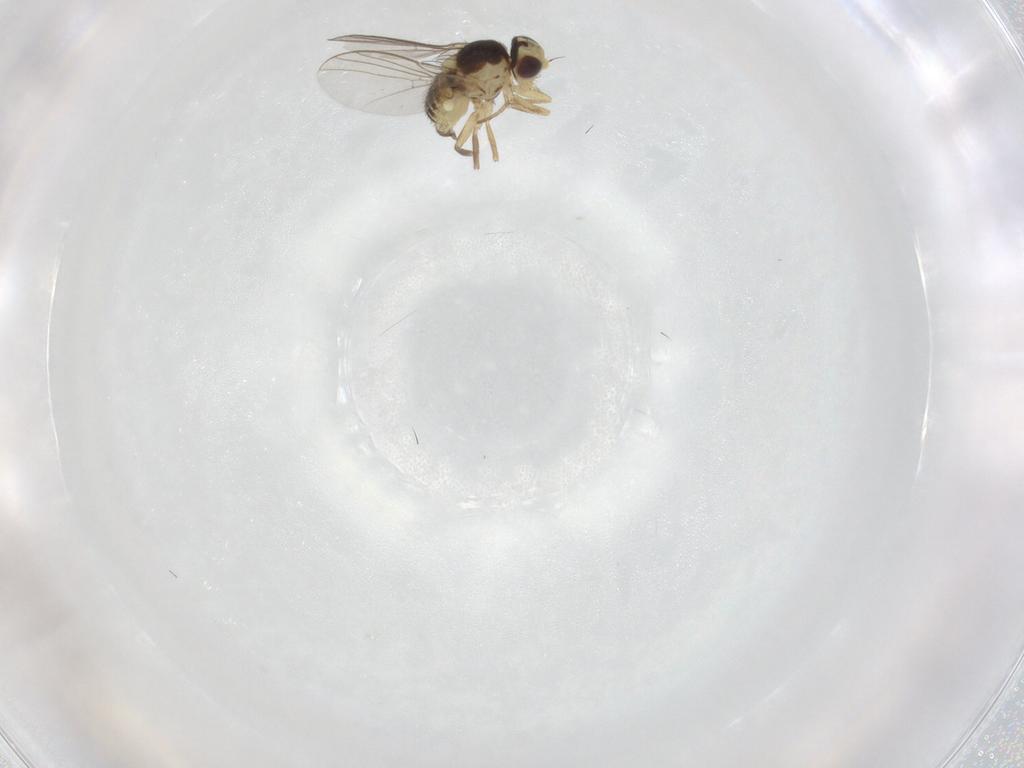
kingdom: Animalia
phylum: Arthropoda
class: Insecta
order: Diptera
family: Agromyzidae
